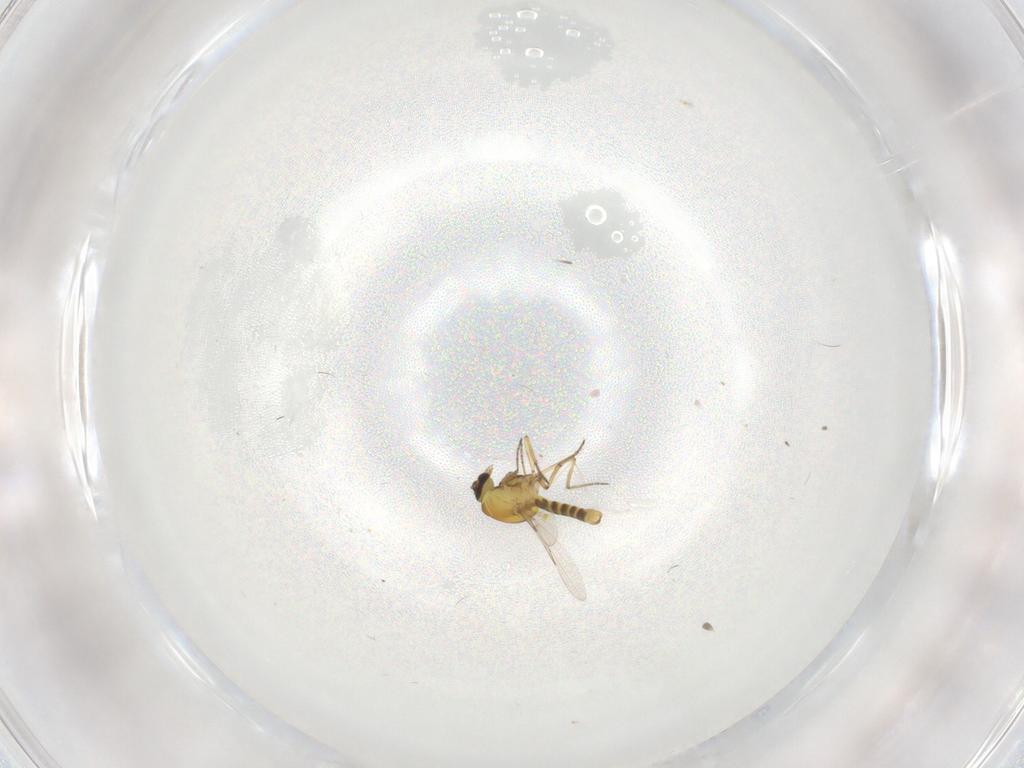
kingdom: Animalia
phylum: Arthropoda
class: Insecta
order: Diptera
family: Ceratopogonidae
